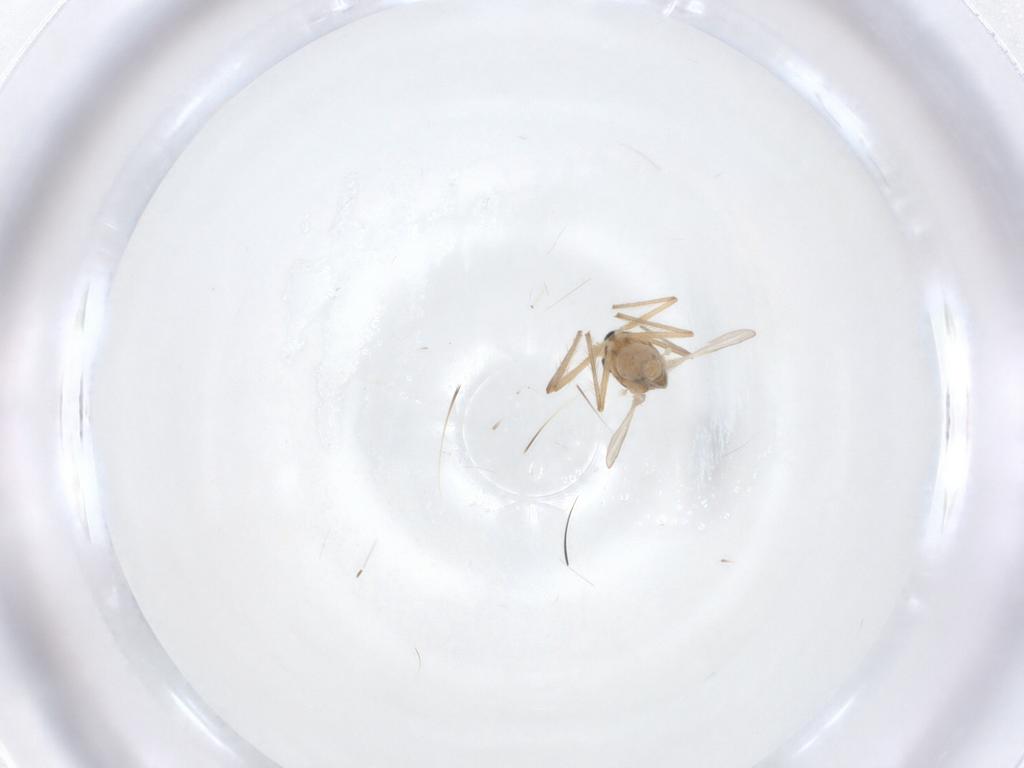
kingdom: Animalia
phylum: Arthropoda
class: Insecta
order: Diptera
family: Chironomidae
